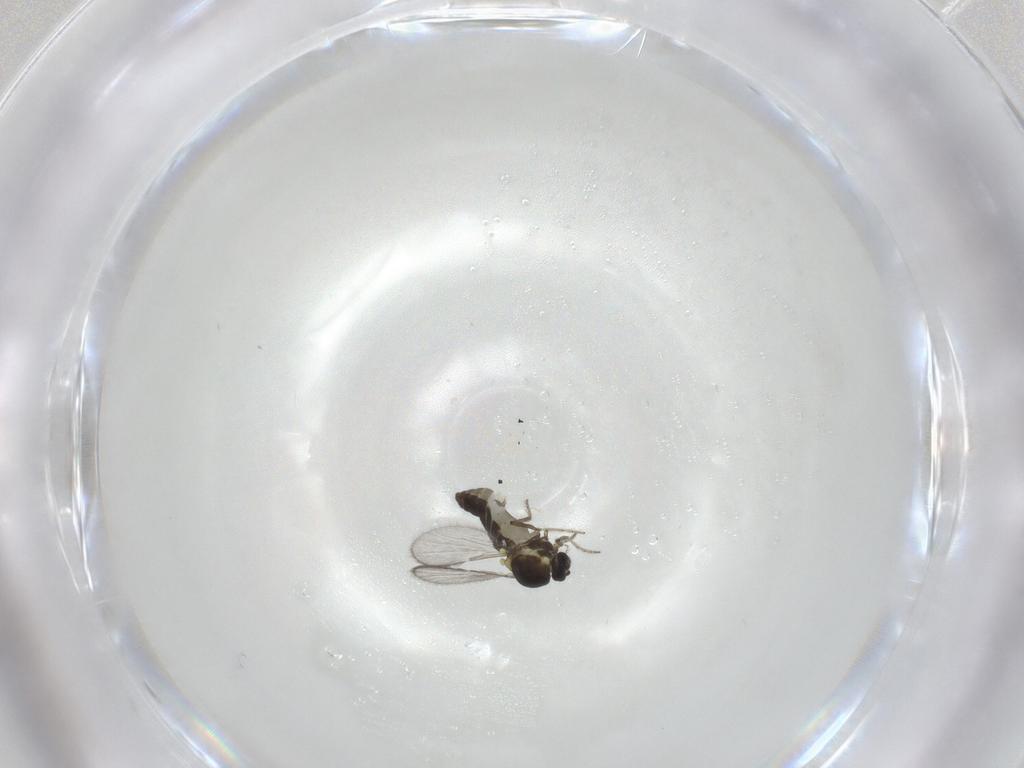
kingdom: Animalia
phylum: Arthropoda
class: Insecta
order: Diptera
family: Ceratopogonidae
